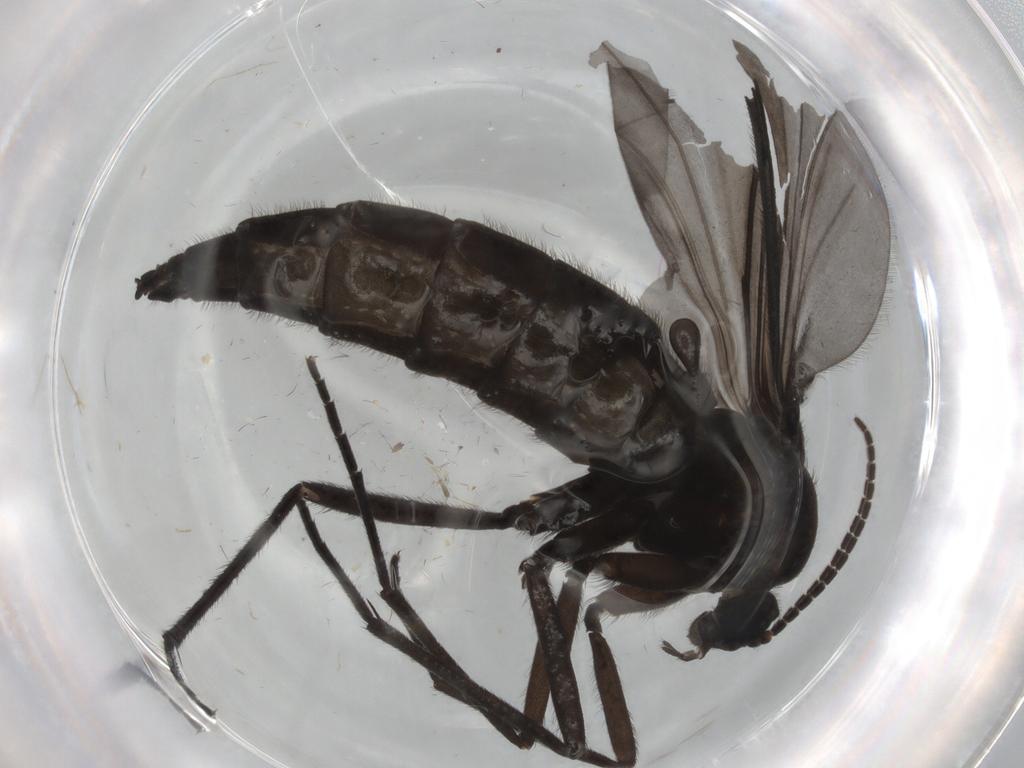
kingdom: Animalia
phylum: Arthropoda
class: Insecta
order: Diptera
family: Sciaridae
